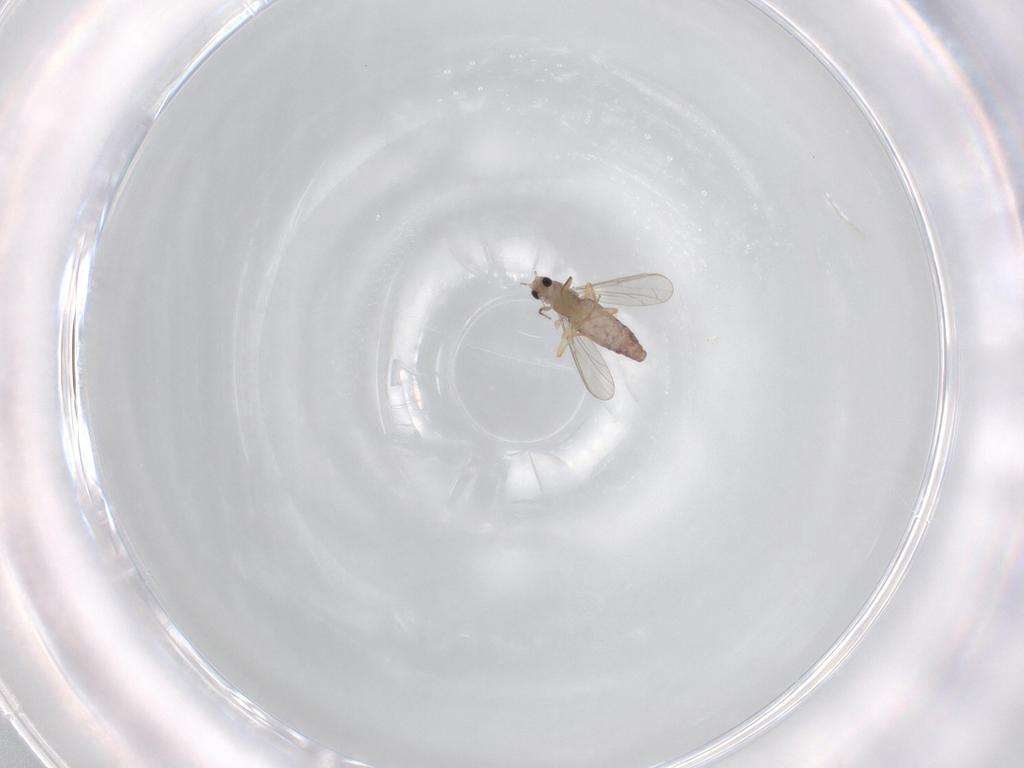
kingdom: Animalia
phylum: Arthropoda
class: Insecta
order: Diptera
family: Chironomidae
